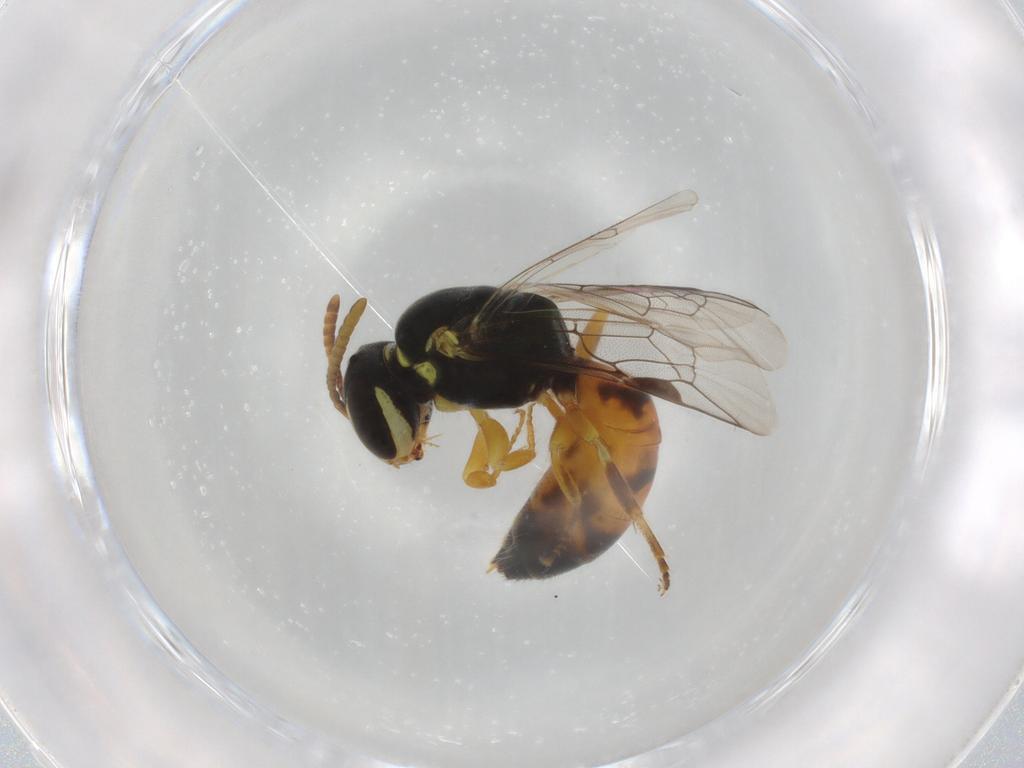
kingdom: Animalia
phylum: Arthropoda
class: Insecta
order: Hymenoptera
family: Colletidae
